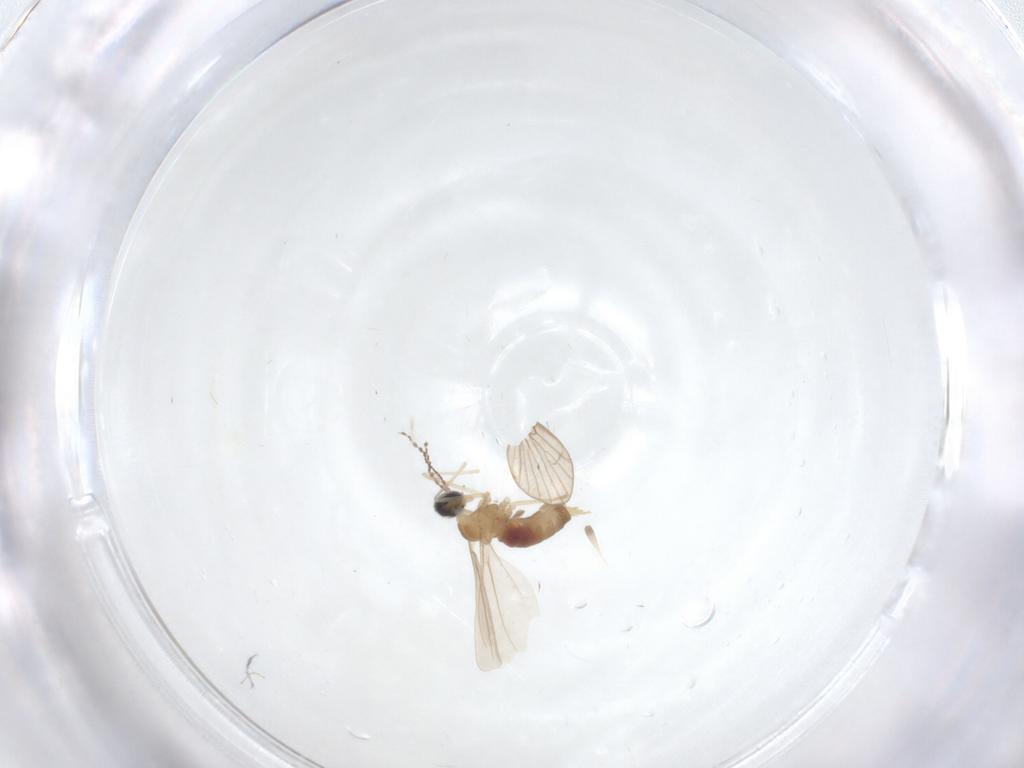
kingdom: Animalia
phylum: Arthropoda
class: Insecta
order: Diptera
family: Cecidomyiidae
